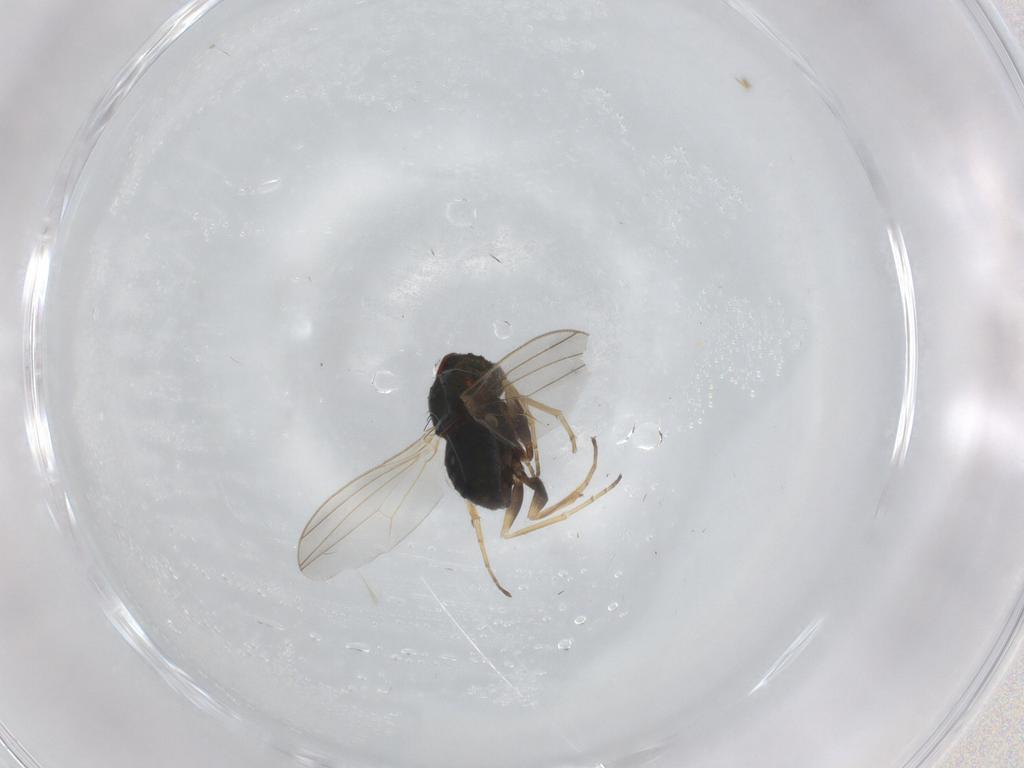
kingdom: Animalia
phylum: Arthropoda
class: Insecta
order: Diptera
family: Dolichopodidae
